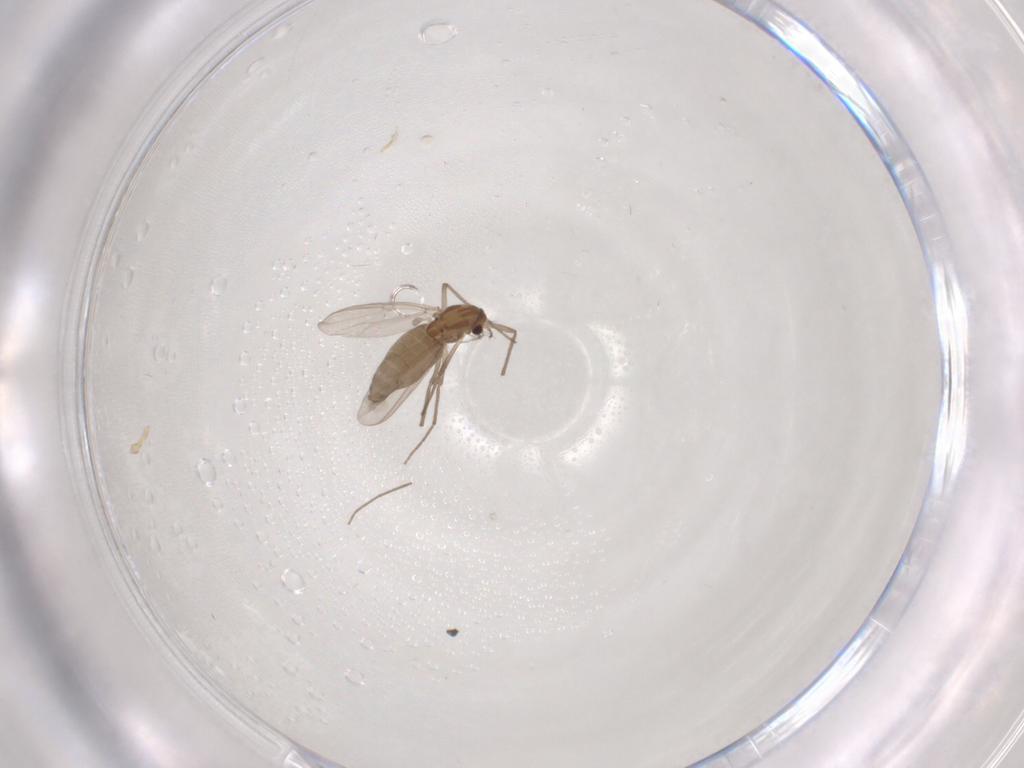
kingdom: Animalia
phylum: Arthropoda
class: Insecta
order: Diptera
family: Chironomidae
